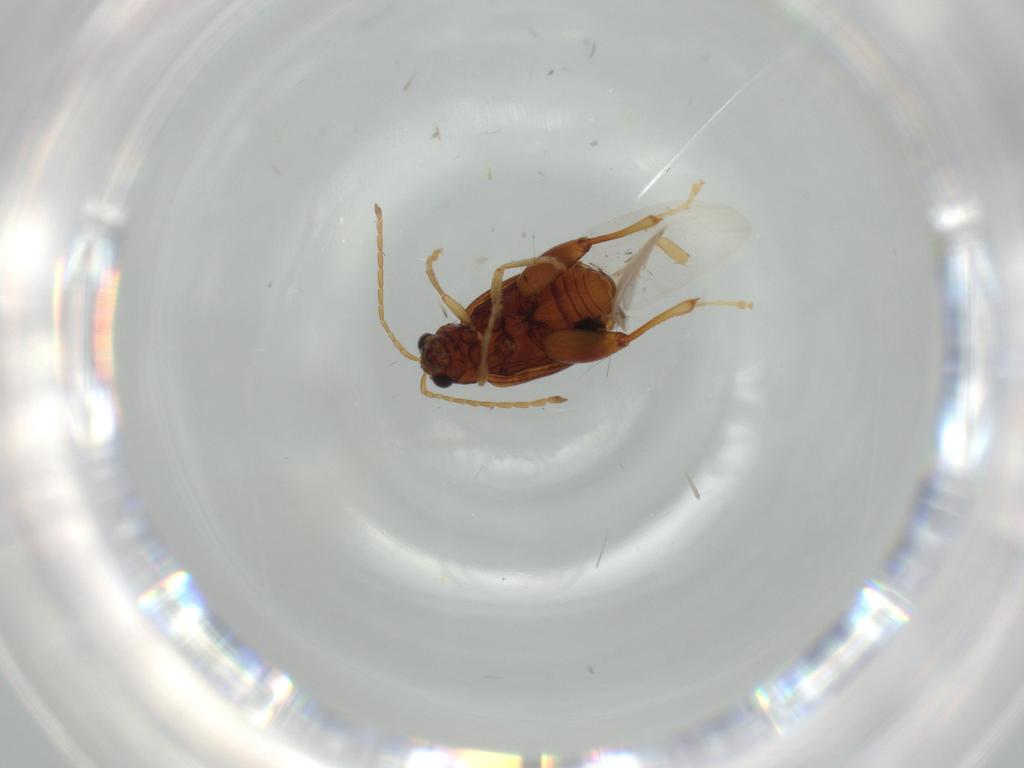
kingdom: Animalia
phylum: Arthropoda
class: Insecta
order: Coleoptera
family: Chrysomelidae
